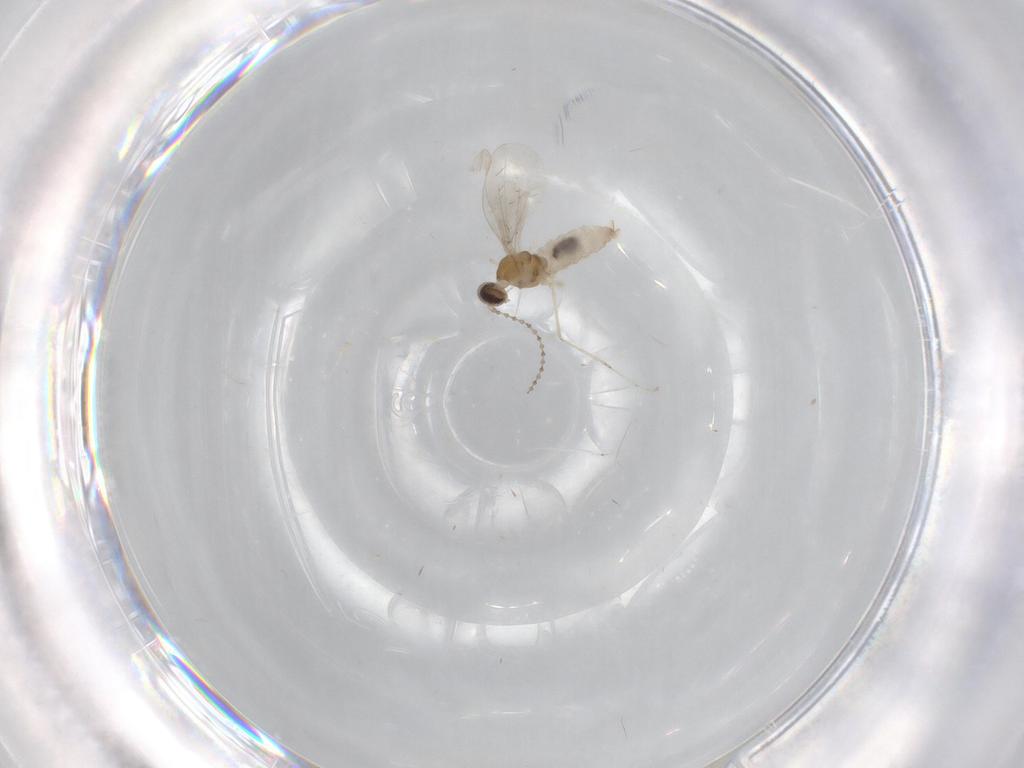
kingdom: Animalia
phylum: Arthropoda
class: Insecta
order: Diptera
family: Cecidomyiidae
